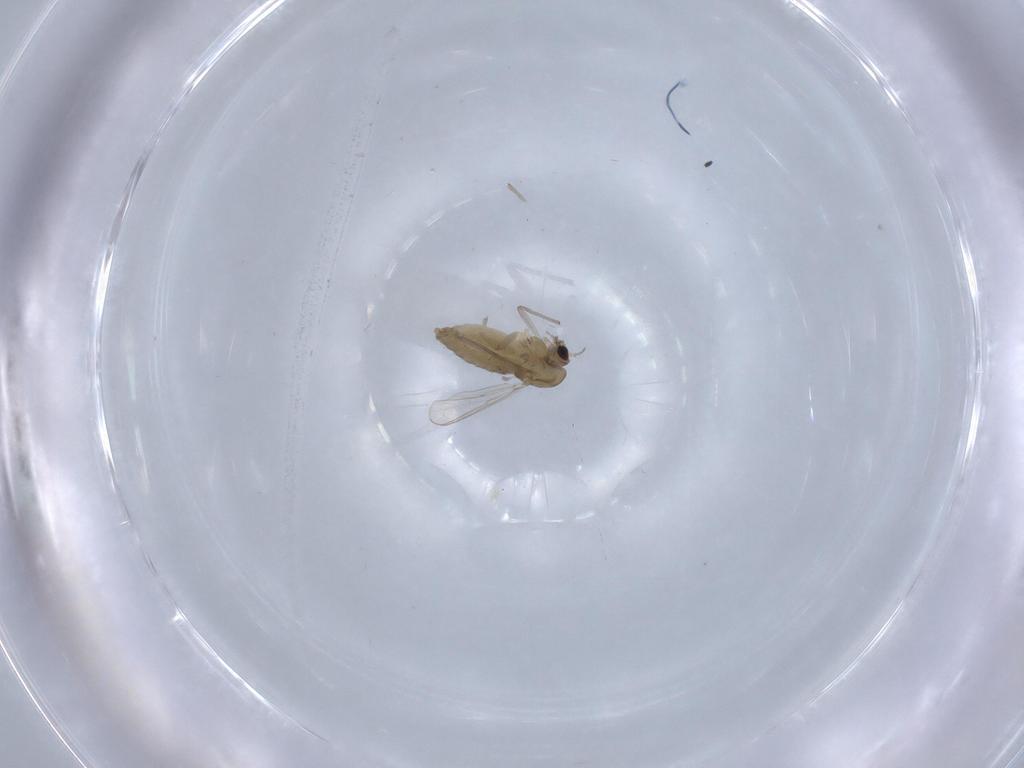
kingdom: Animalia
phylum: Arthropoda
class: Insecta
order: Diptera
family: Chironomidae
